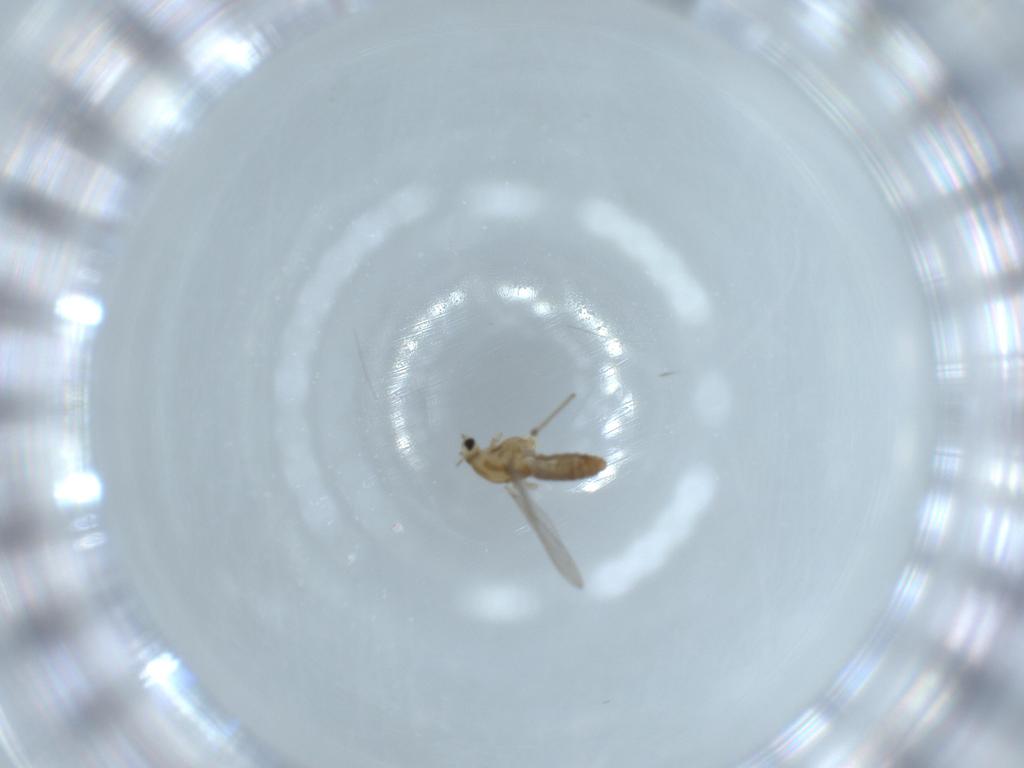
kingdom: Animalia
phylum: Arthropoda
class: Insecta
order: Diptera
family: Chironomidae
